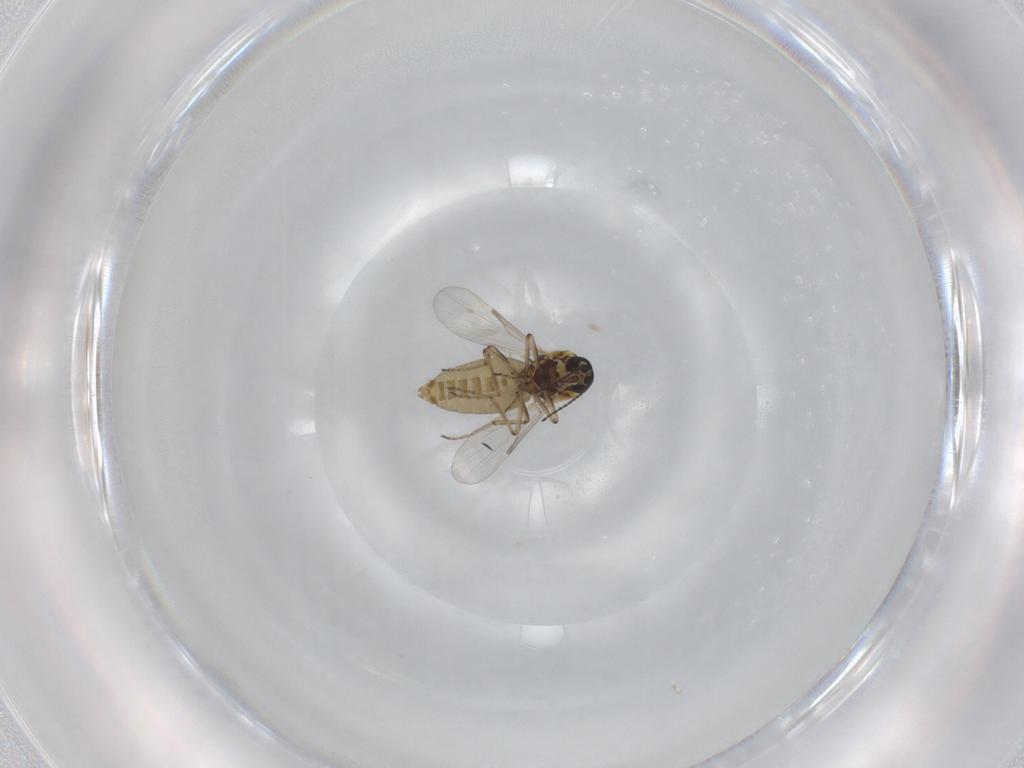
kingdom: Animalia
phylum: Arthropoda
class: Insecta
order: Diptera
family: Ceratopogonidae
